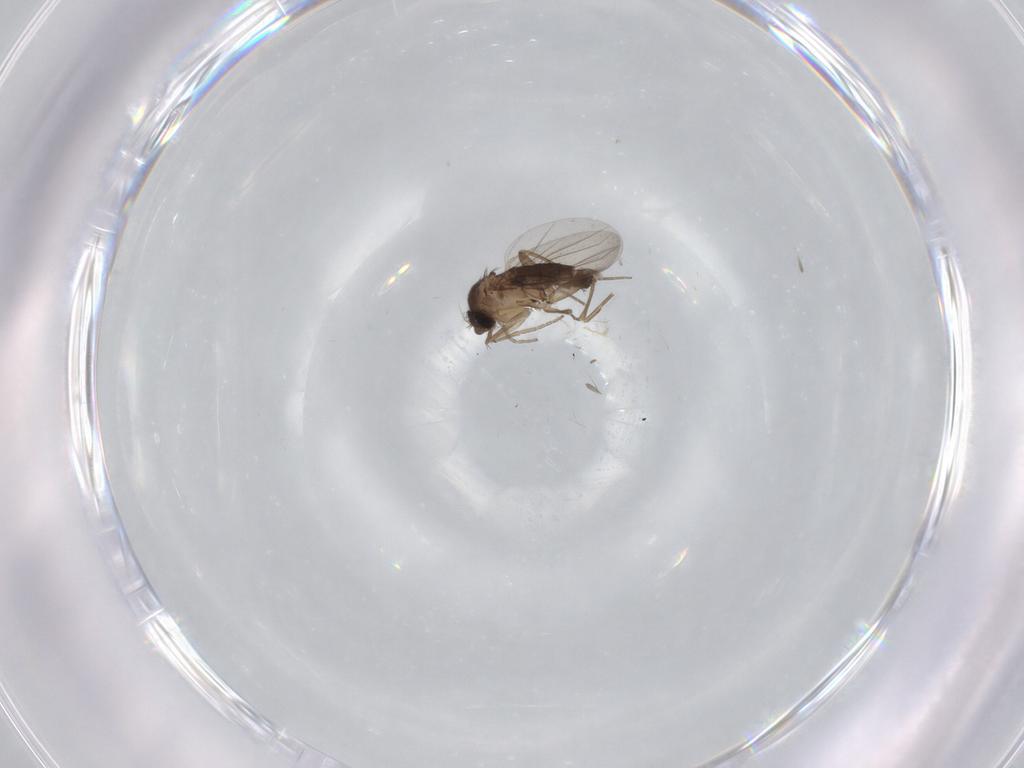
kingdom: Animalia
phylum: Arthropoda
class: Insecta
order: Diptera
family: Phoridae
